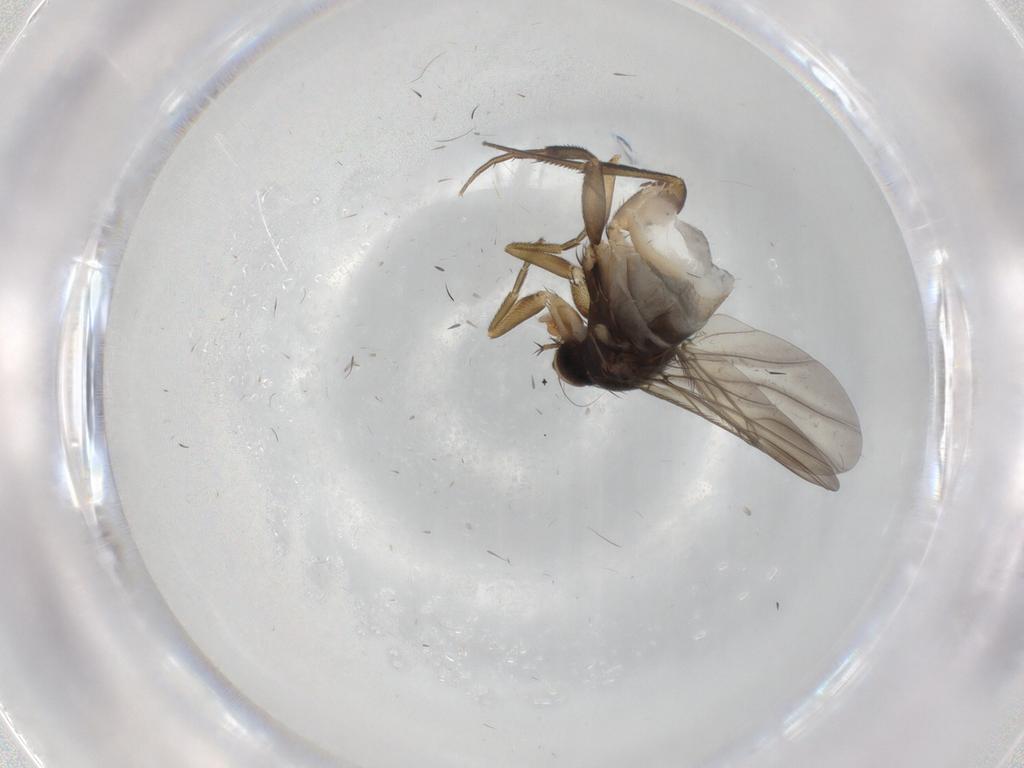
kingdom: Animalia
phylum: Arthropoda
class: Insecta
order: Diptera
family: Phoridae
